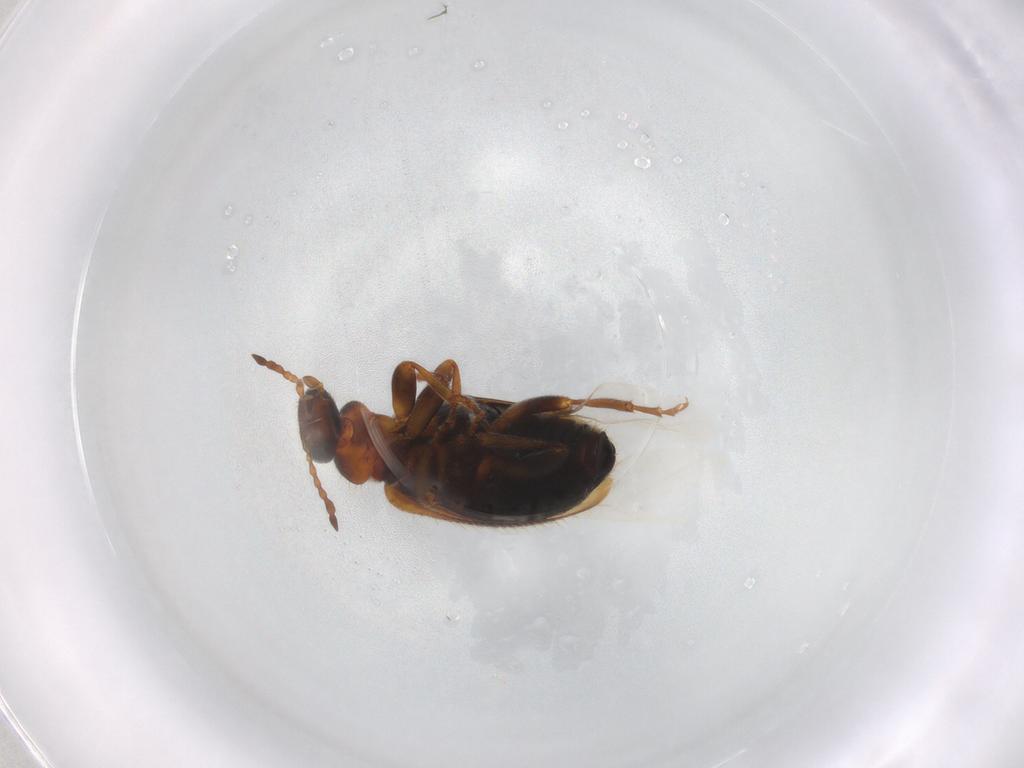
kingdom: Animalia
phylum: Arthropoda
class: Insecta
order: Coleoptera
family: Anthicidae
